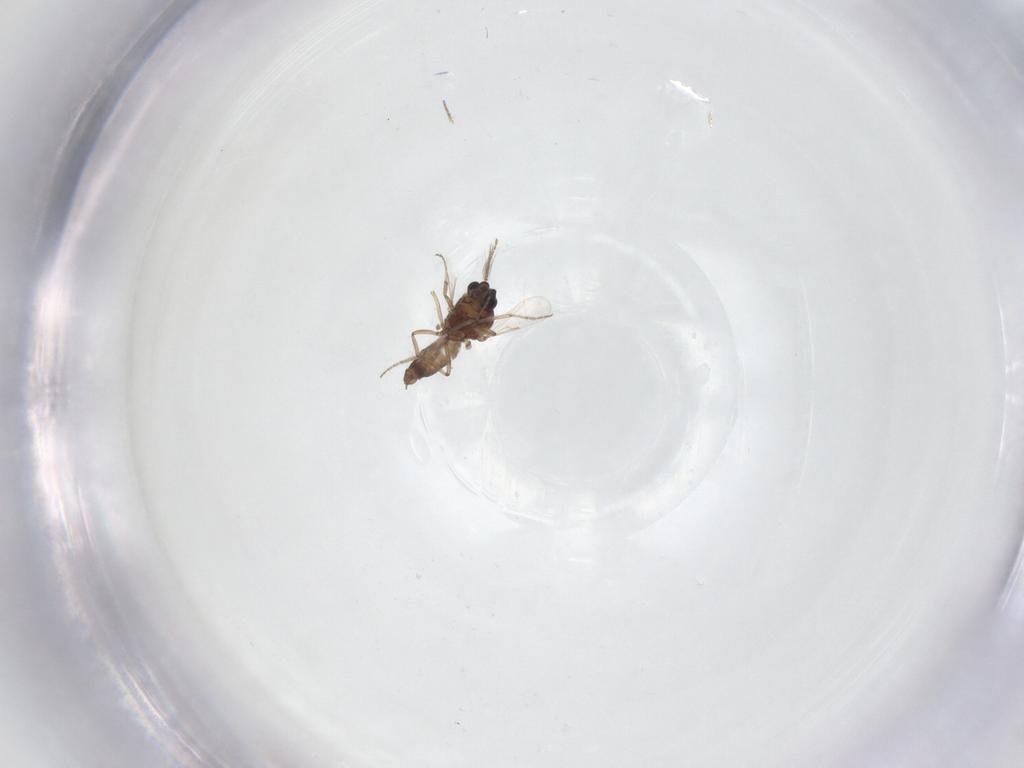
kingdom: Animalia
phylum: Arthropoda
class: Insecta
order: Diptera
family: Ceratopogonidae
